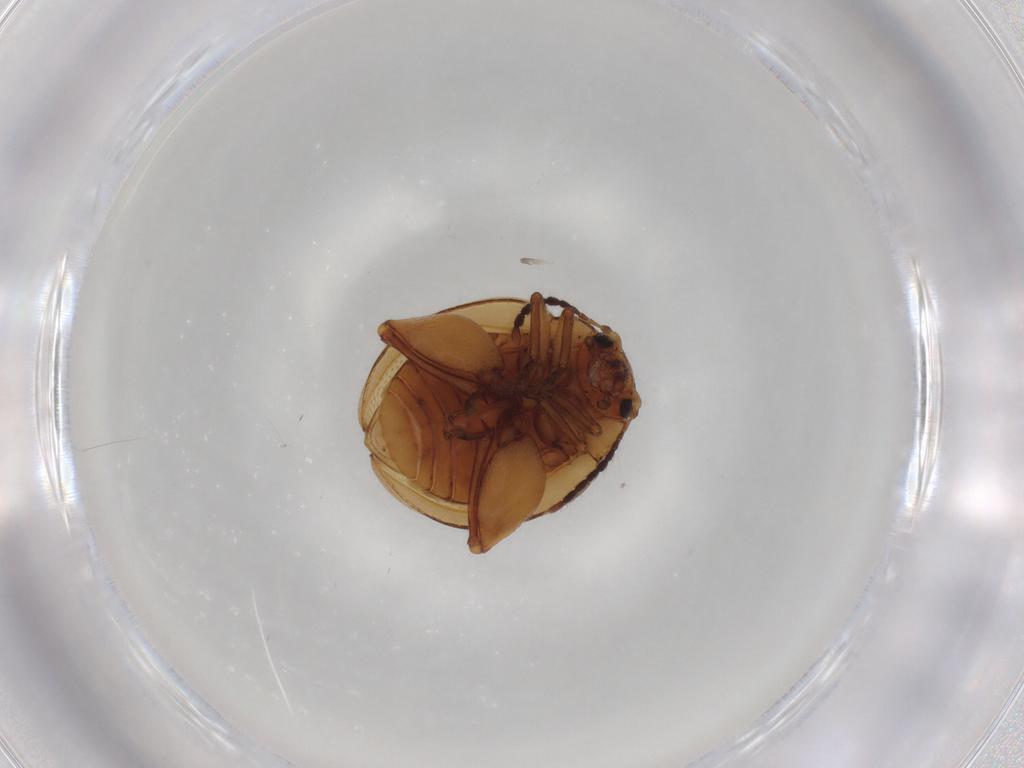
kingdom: Animalia
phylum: Arthropoda
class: Insecta
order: Coleoptera
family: Chrysomelidae
